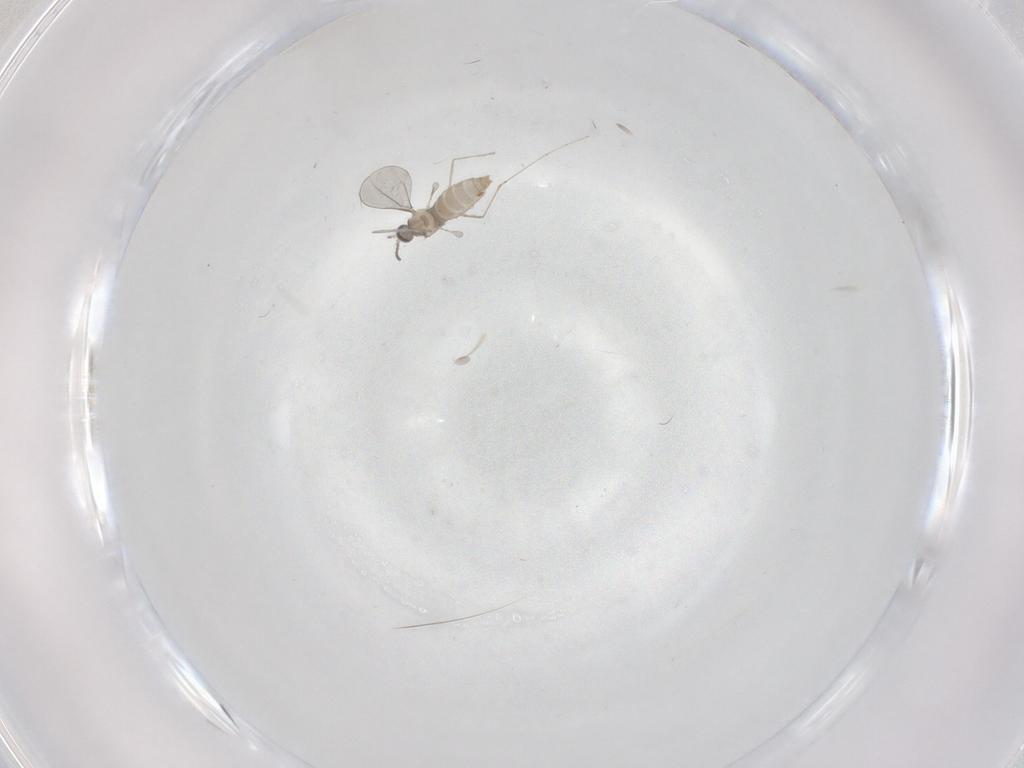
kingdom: Animalia
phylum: Arthropoda
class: Insecta
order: Diptera
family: Cecidomyiidae
